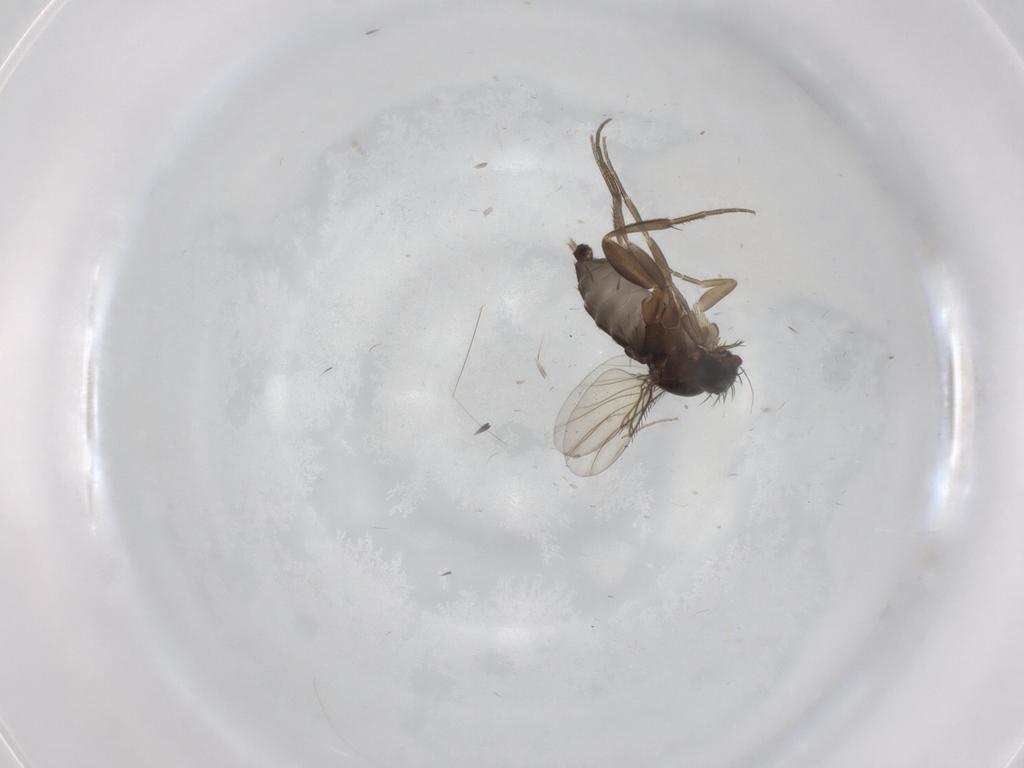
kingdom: Animalia
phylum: Arthropoda
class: Insecta
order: Diptera
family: Phoridae
